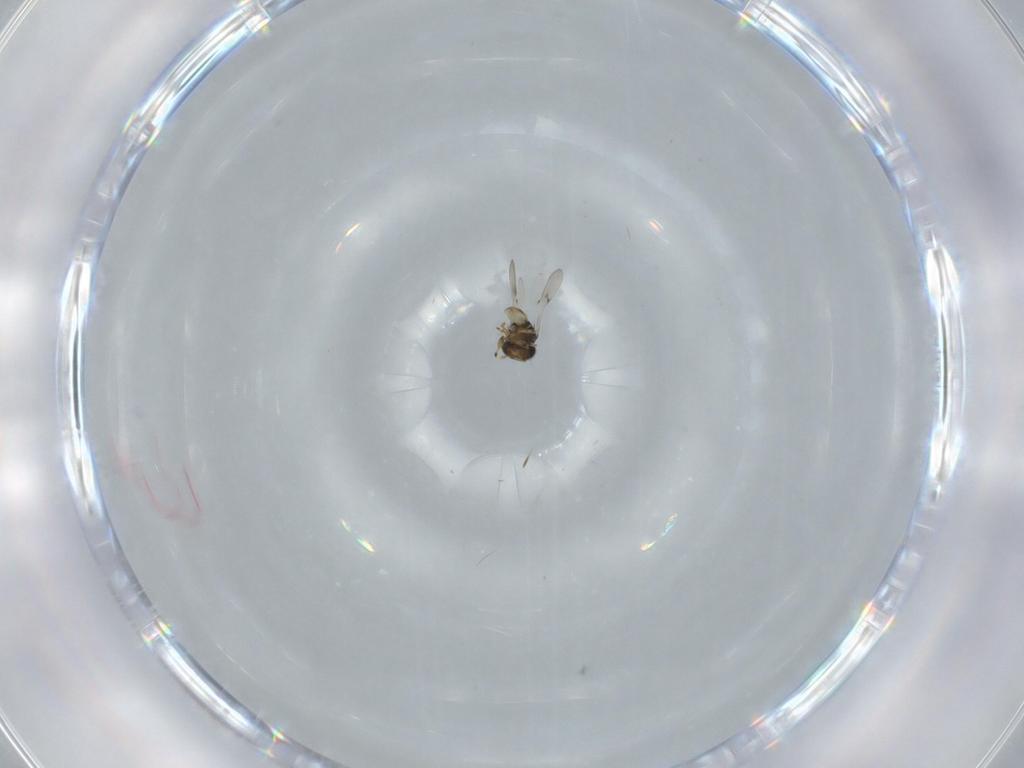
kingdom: Animalia
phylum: Arthropoda
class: Insecta
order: Hymenoptera
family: Scelionidae
